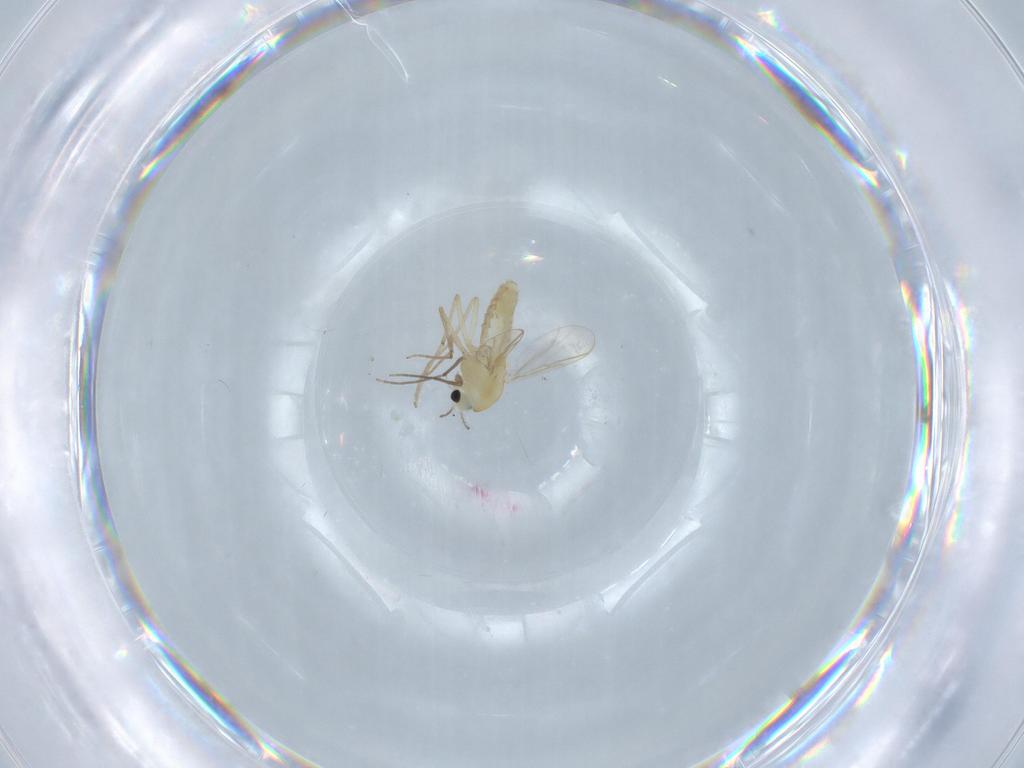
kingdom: Animalia
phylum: Arthropoda
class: Insecta
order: Diptera
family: Chironomidae
